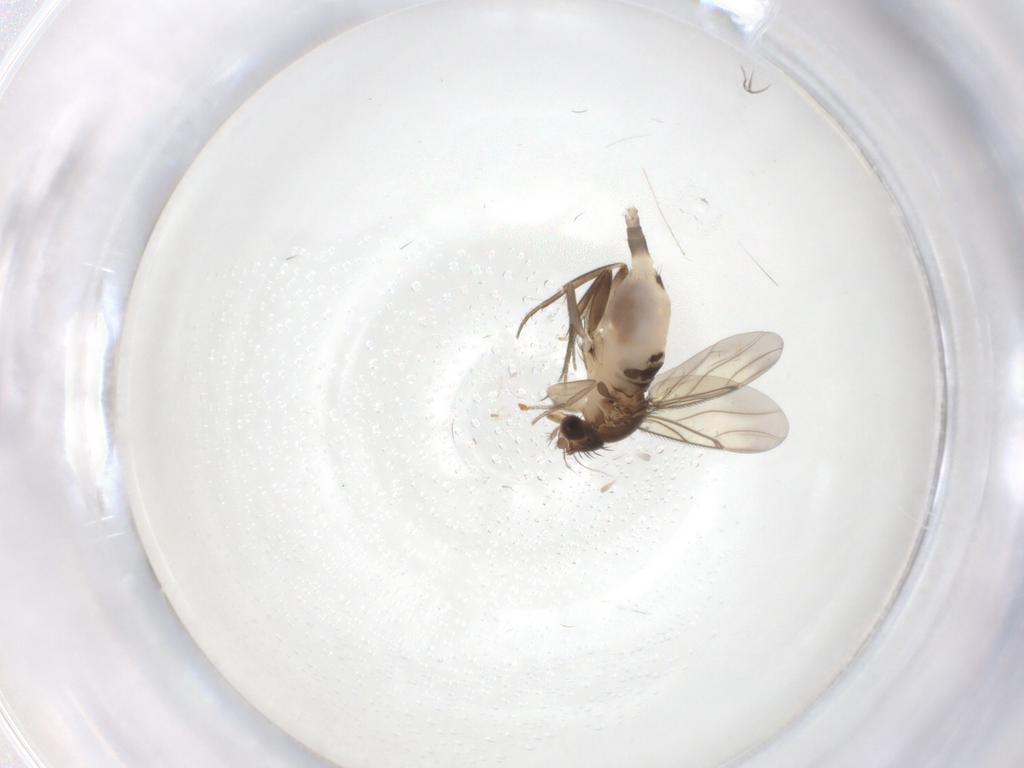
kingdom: Animalia
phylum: Arthropoda
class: Insecta
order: Diptera
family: Phoridae
